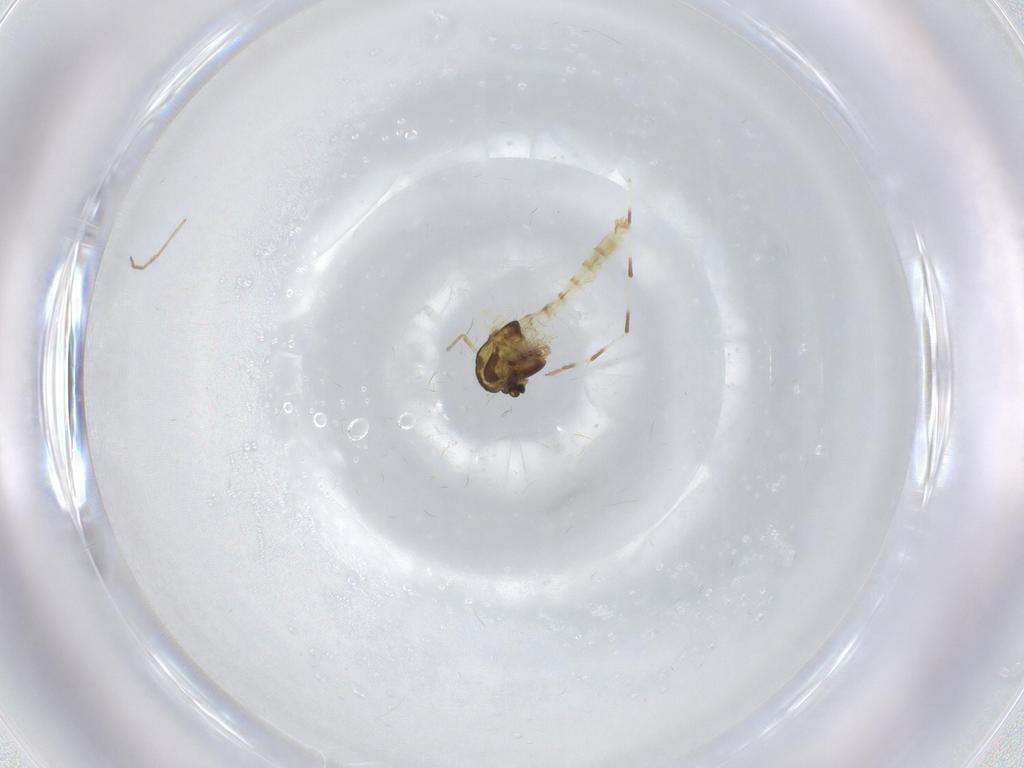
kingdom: Animalia
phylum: Arthropoda
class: Insecta
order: Diptera
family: Chironomidae
